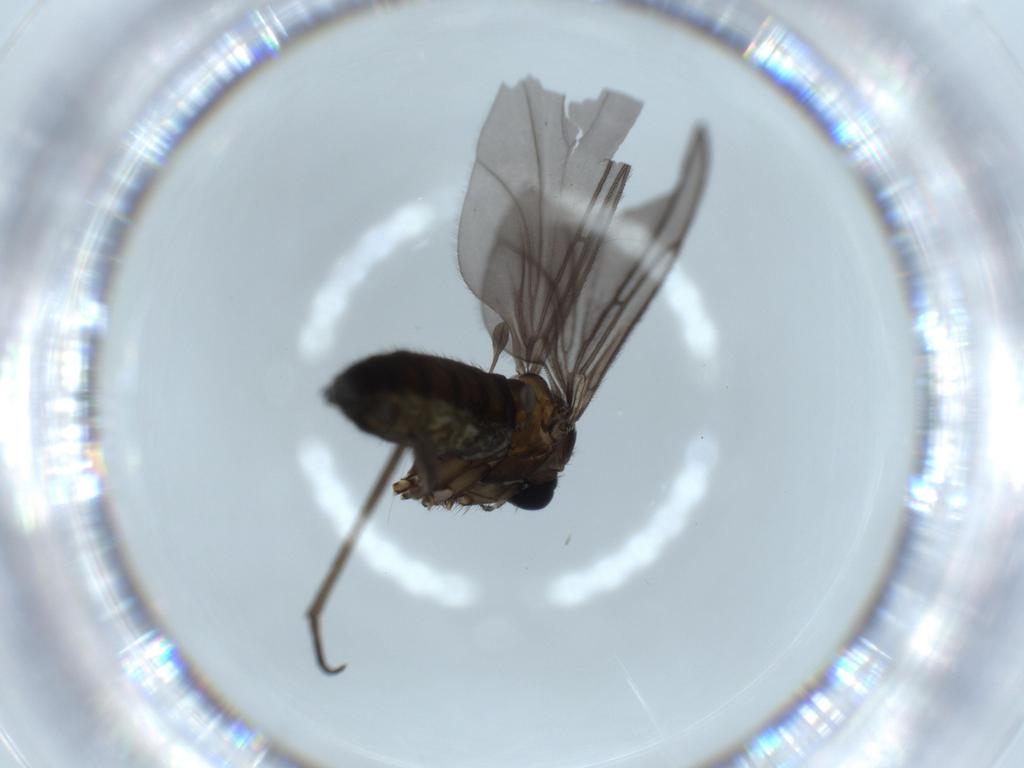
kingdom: Animalia
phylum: Arthropoda
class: Insecta
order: Diptera
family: Sciaridae
